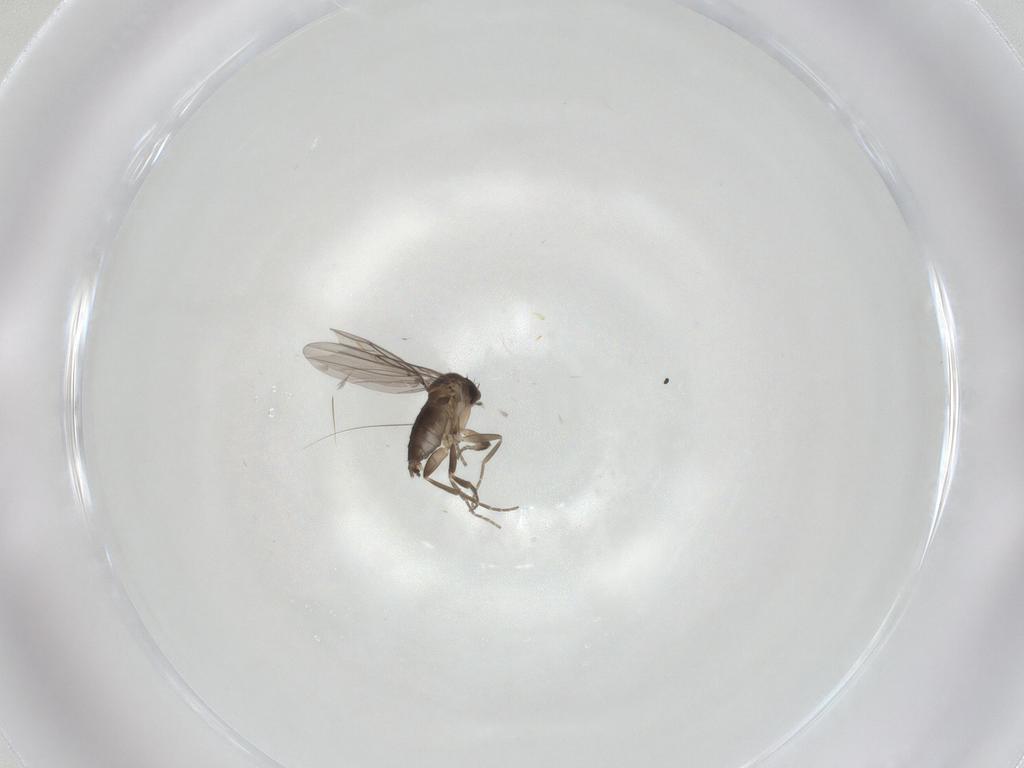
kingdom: Animalia
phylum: Arthropoda
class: Insecta
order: Diptera
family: Phoridae
